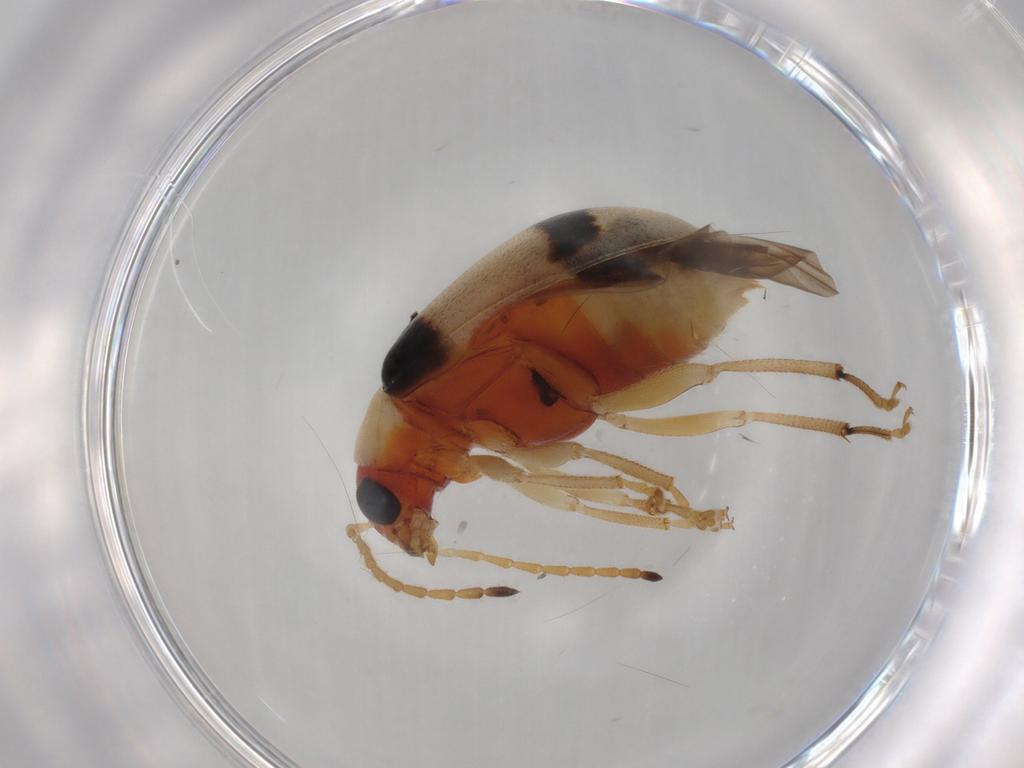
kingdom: Animalia
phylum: Arthropoda
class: Insecta
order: Coleoptera
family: Chrysomelidae
